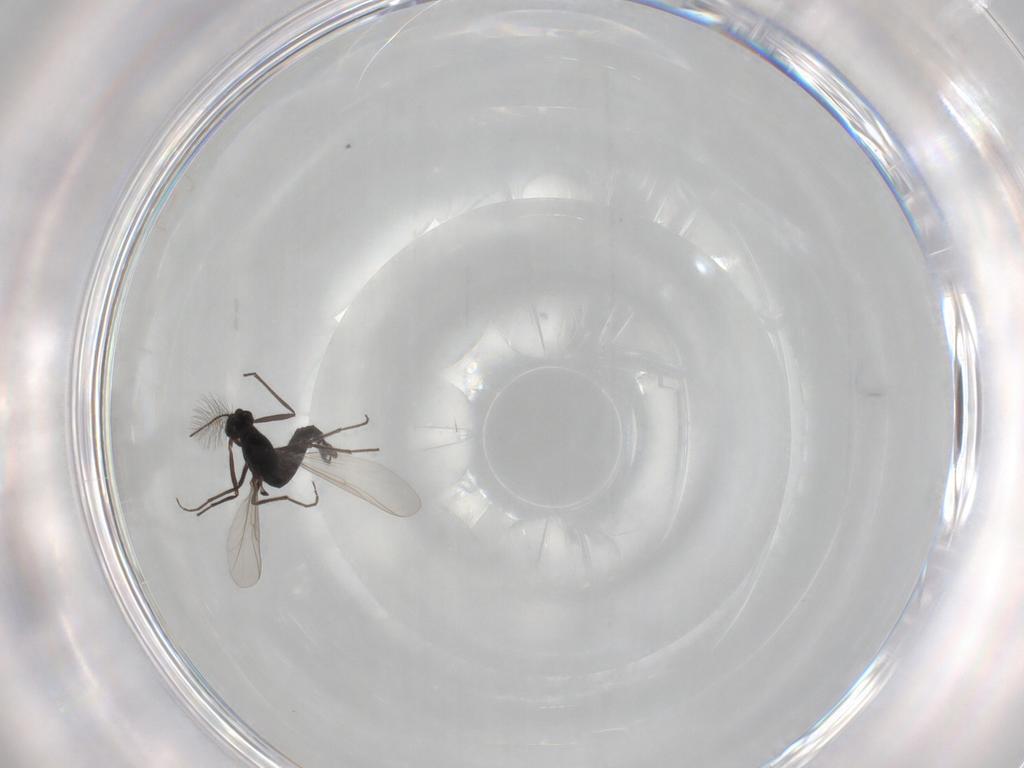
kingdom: Animalia
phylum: Arthropoda
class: Insecta
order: Diptera
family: Chironomidae
